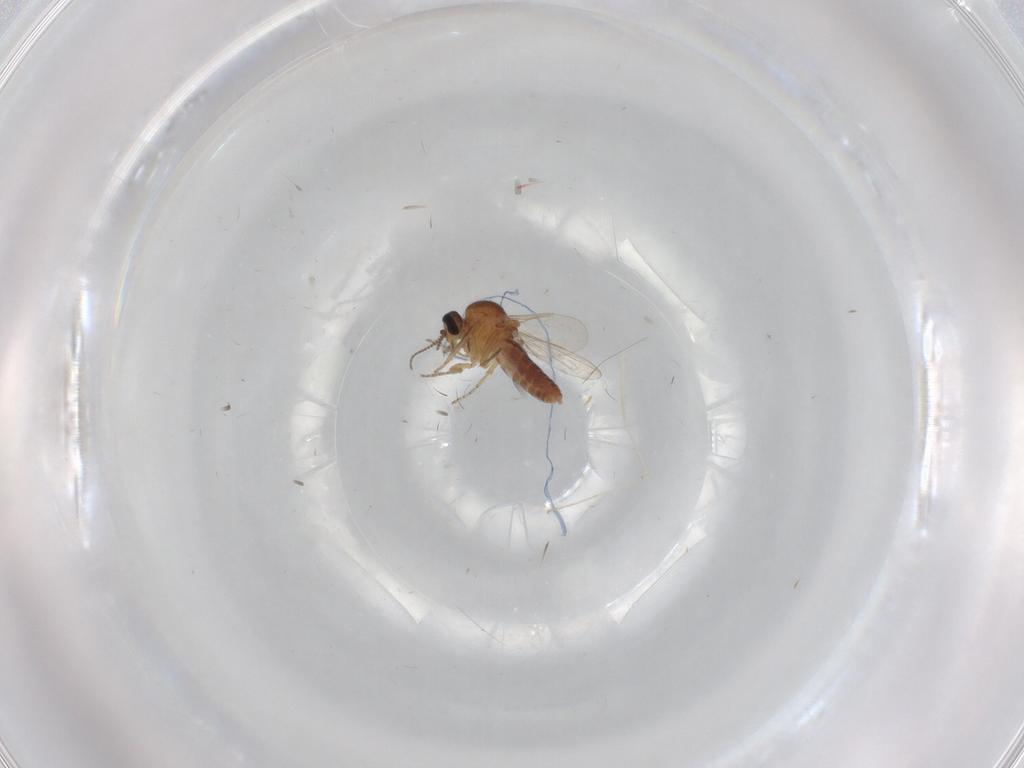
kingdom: Animalia
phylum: Arthropoda
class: Insecta
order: Diptera
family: Ceratopogonidae
